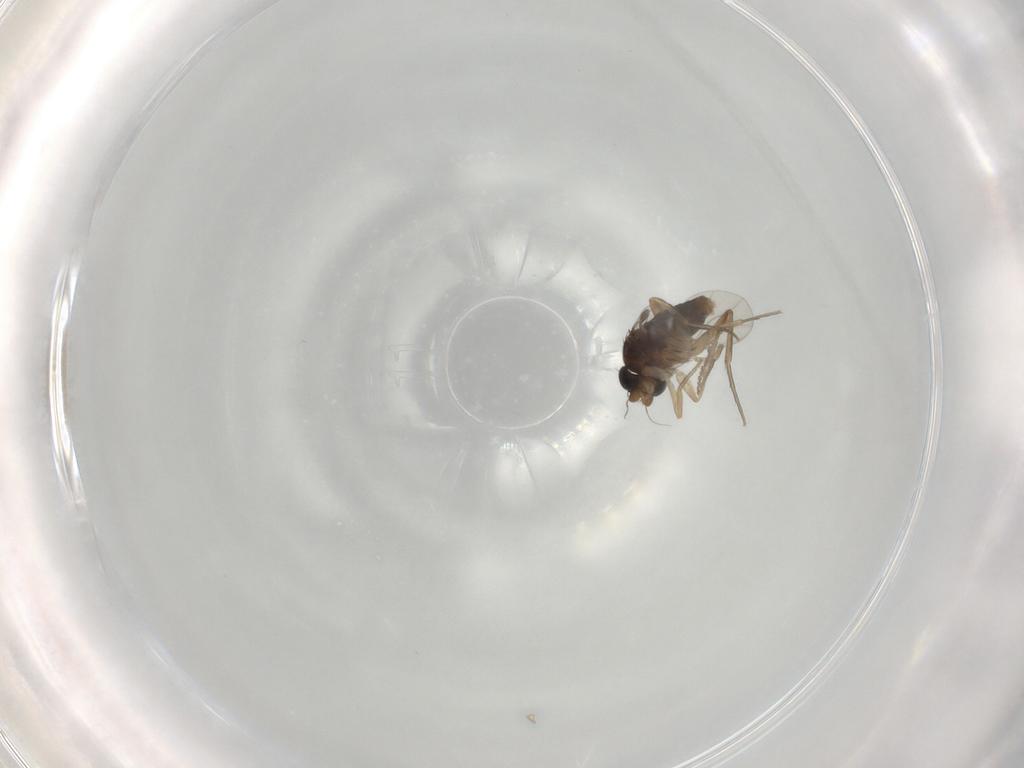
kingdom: Animalia
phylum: Arthropoda
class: Insecta
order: Diptera
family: Phoridae
